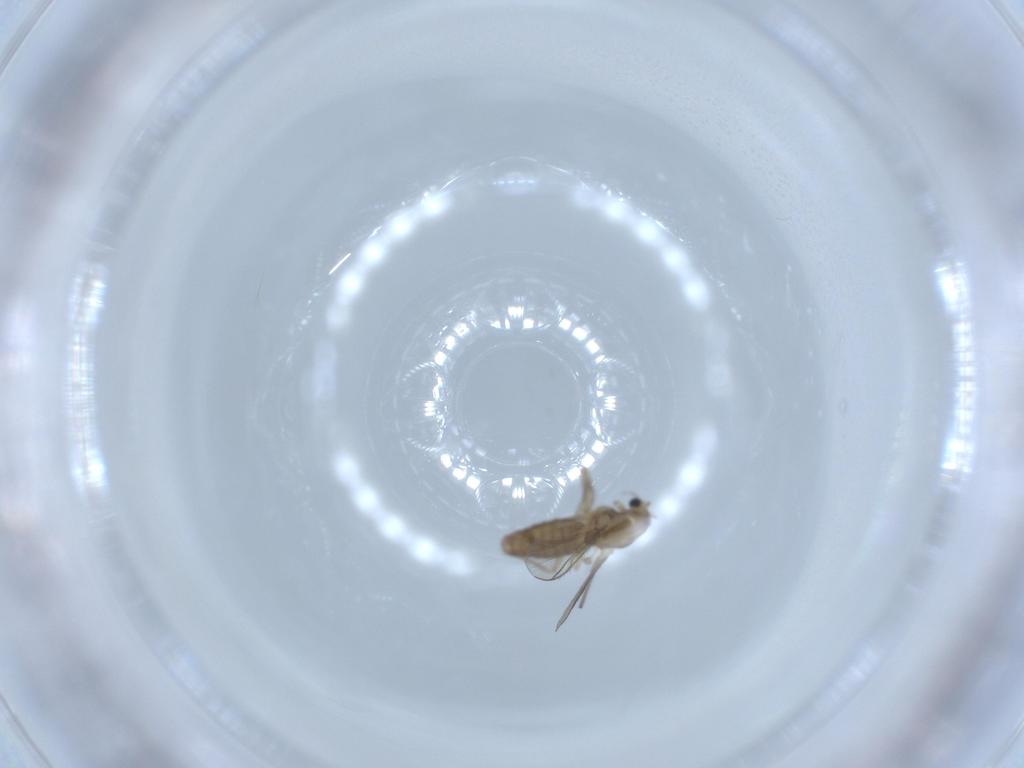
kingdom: Animalia
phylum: Arthropoda
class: Insecta
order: Diptera
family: Chironomidae
